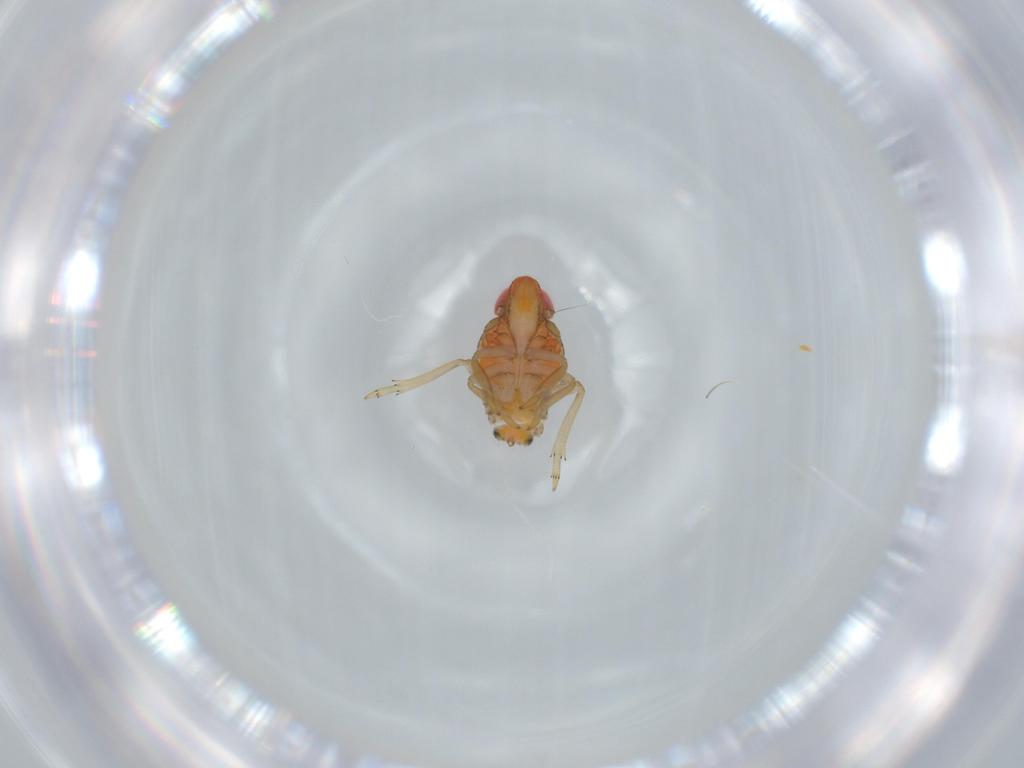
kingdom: Animalia
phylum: Arthropoda
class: Insecta
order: Hemiptera
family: Fulgoroidea_incertae_sedis
